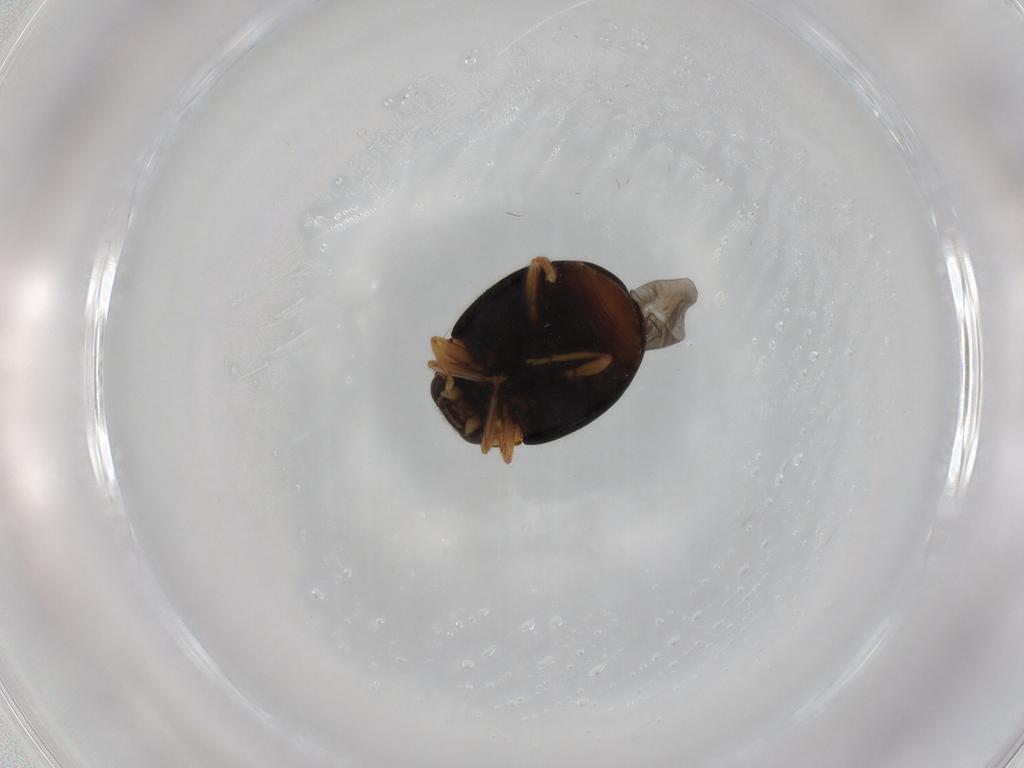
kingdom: Animalia
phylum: Arthropoda
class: Insecta
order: Coleoptera
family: Coccinellidae
